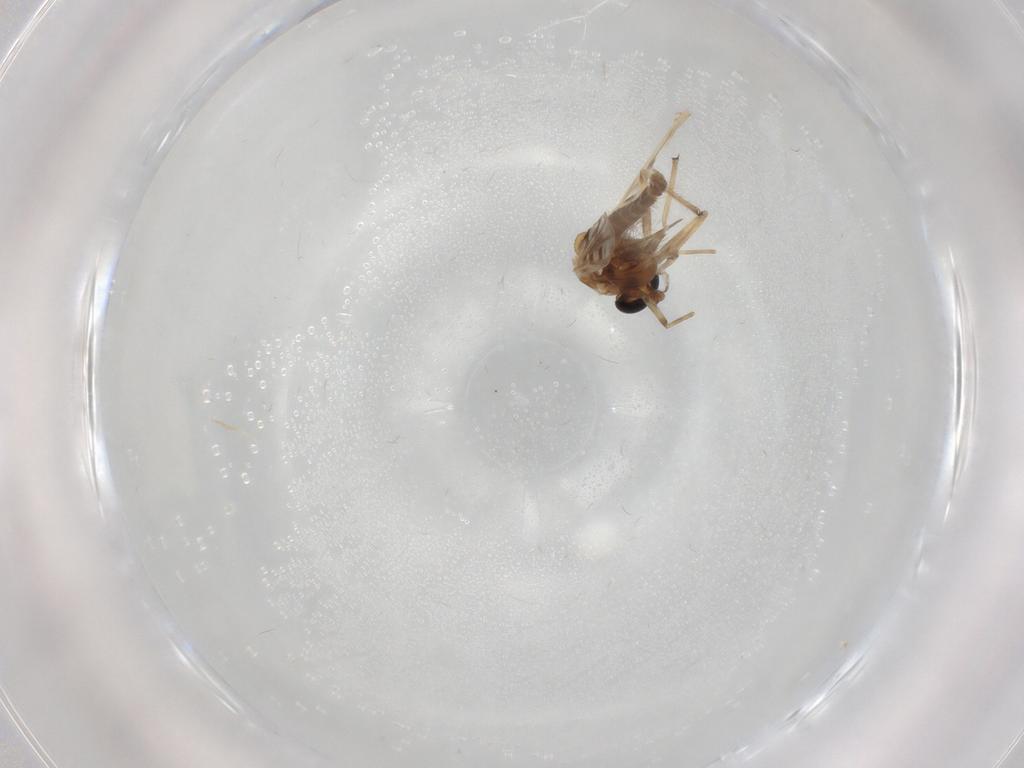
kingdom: Animalia
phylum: Arthropoda
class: Insecta
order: Diptera
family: Chironomidae
